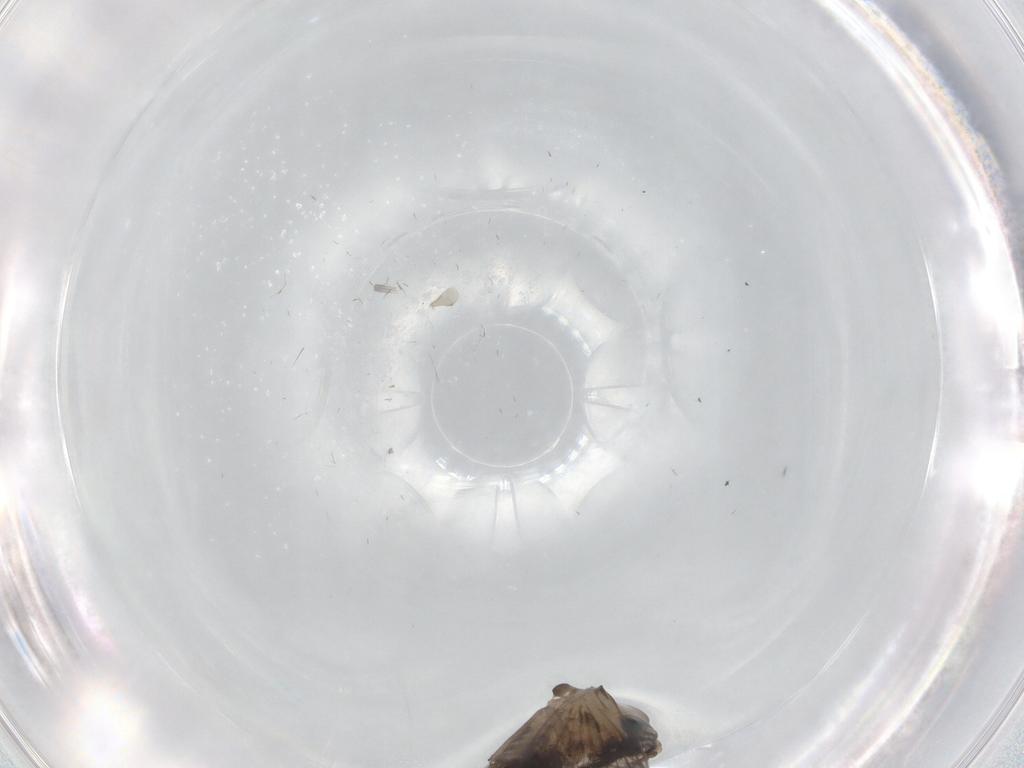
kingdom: Animalia
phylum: Arthropoda
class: Insecta
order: Diptera
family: Psychodidae
